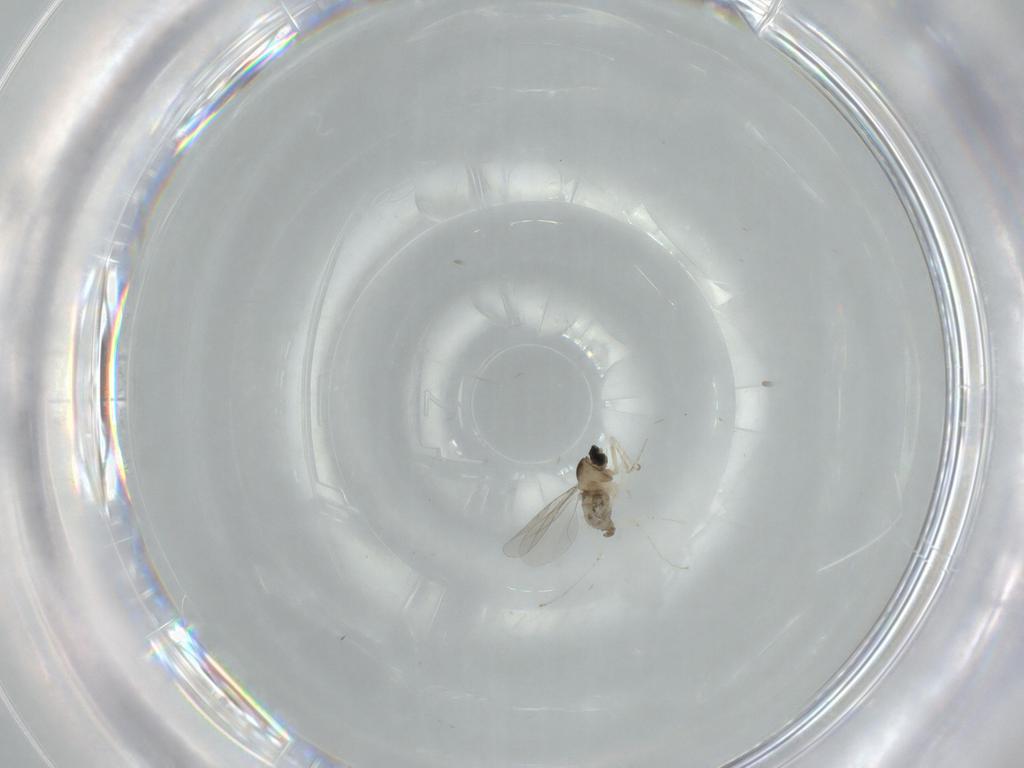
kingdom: Animalia
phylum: Arthropoda
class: Insecta
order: Diptera
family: Cecidomyiidae
